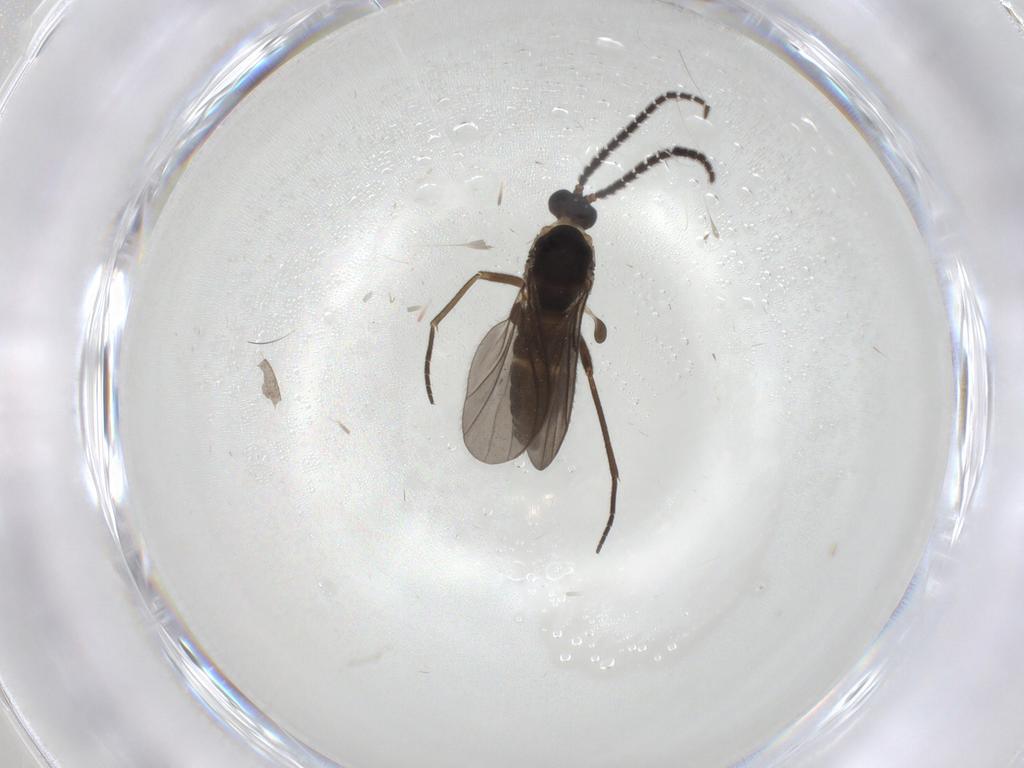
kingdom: Animalia
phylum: Arthropoda
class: Insecta
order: Diptera
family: Sciaridae
